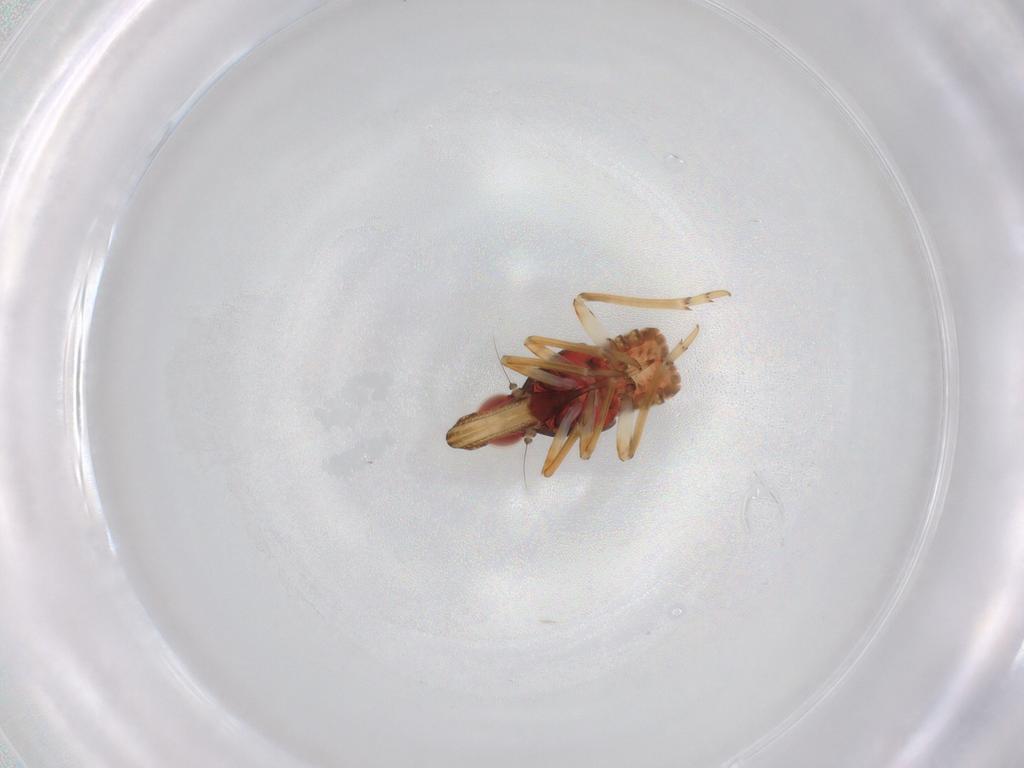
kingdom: Animalia
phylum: Arthropoda
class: Insecta
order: Hemiptera
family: Fulgoroidea_incertae_sedis
